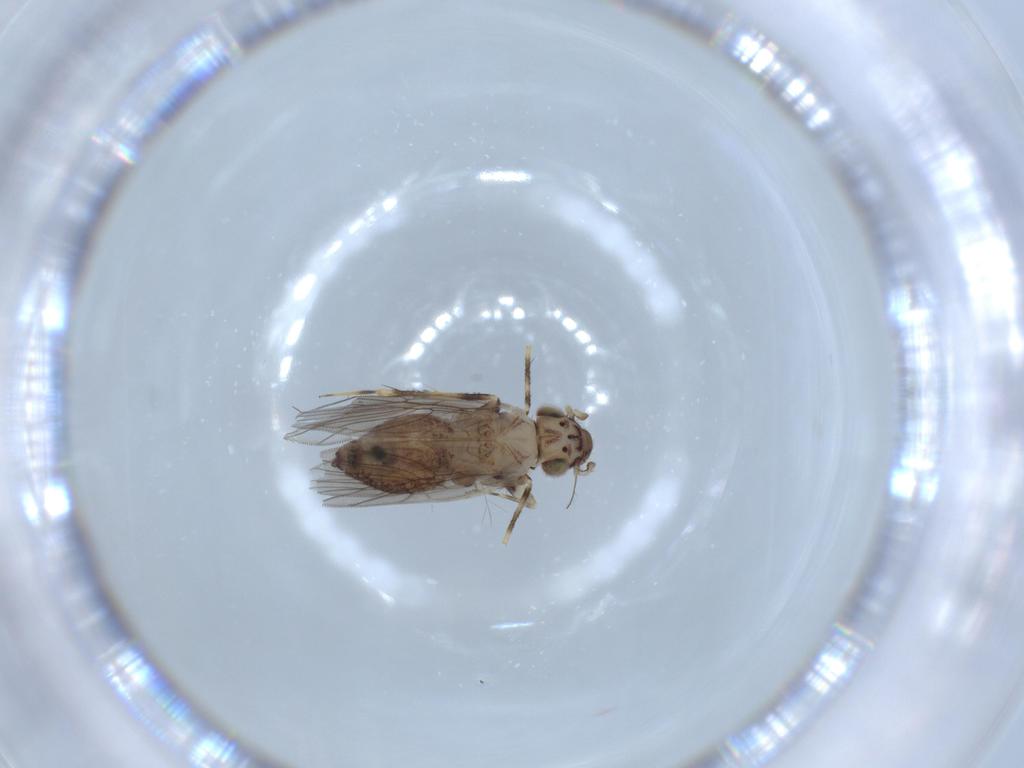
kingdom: Animalia
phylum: Arthropoda
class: Insecta
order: Psocodea
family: Lepidopsocidae
